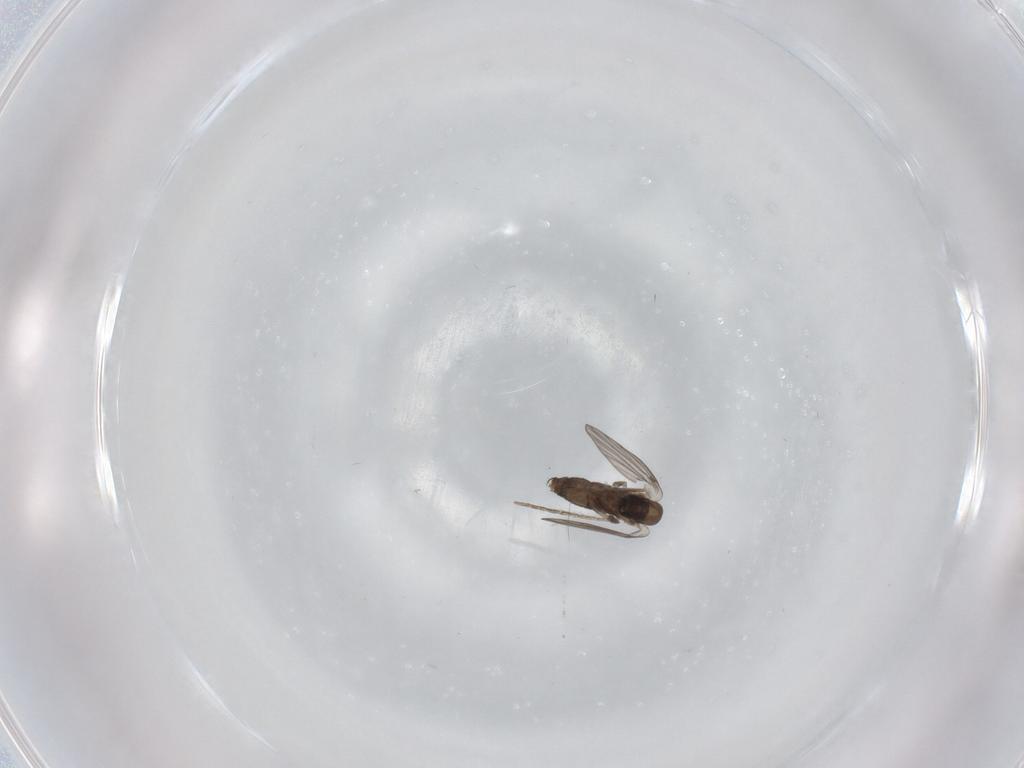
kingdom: Animalia
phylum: Arthropoda
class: Insecta
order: Diptera
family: Psychodidae
